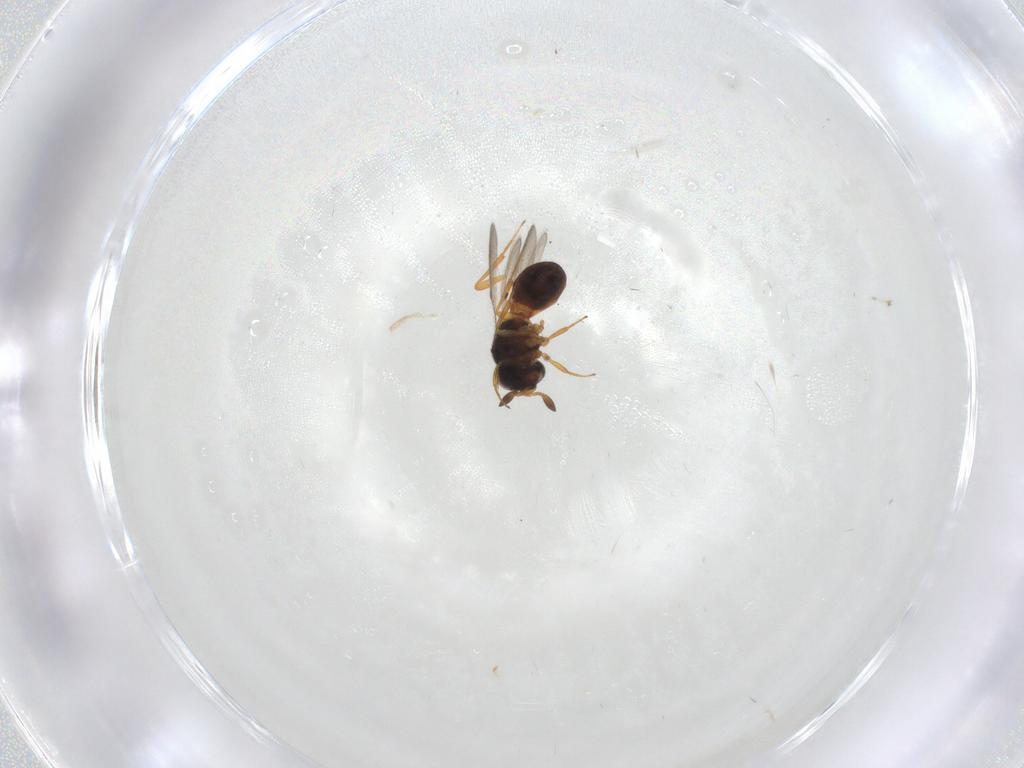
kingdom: Animalia
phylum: Arthropoda
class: Insecta
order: Hymenoptera
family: Scelionidae
